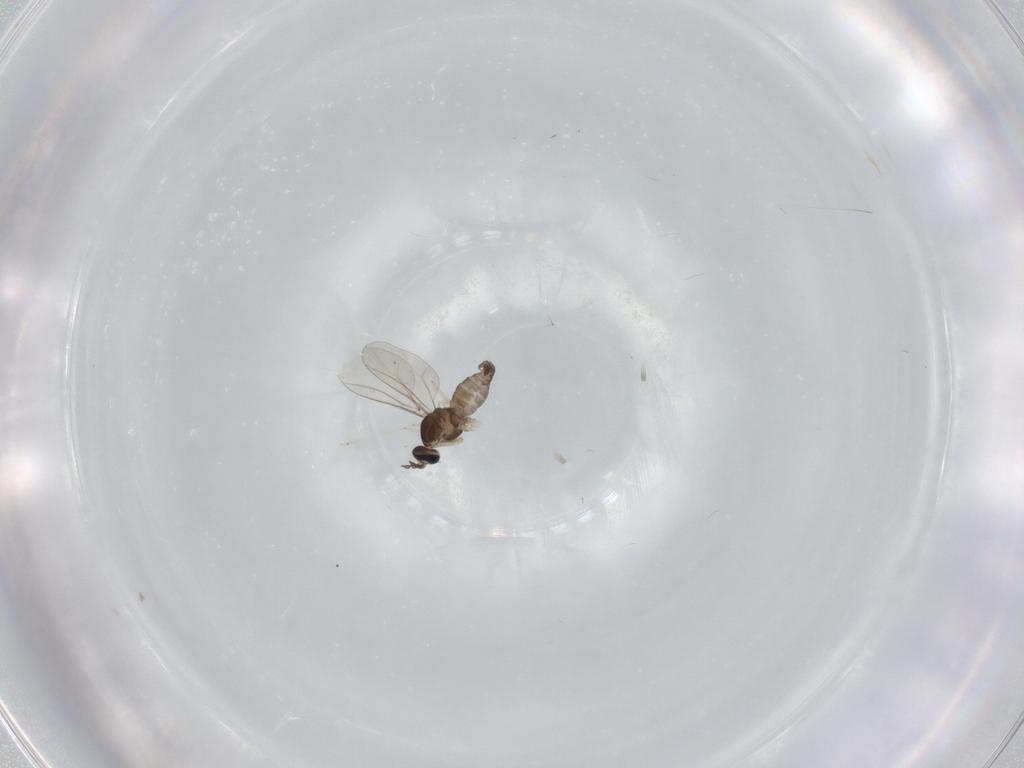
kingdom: Animalia
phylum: Arthropoda
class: Insecta
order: Diptera
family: Cecidomyiidae
